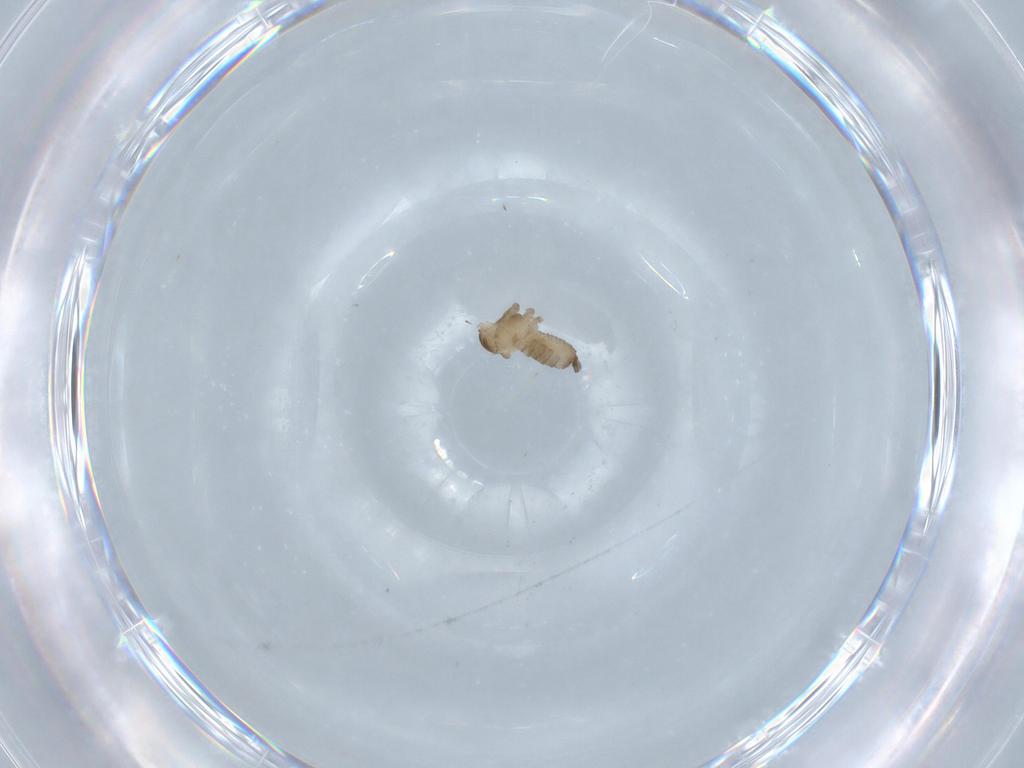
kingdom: Animalia
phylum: Arthropoda
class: Insecta
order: Diptera
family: Cecidomyiidae
